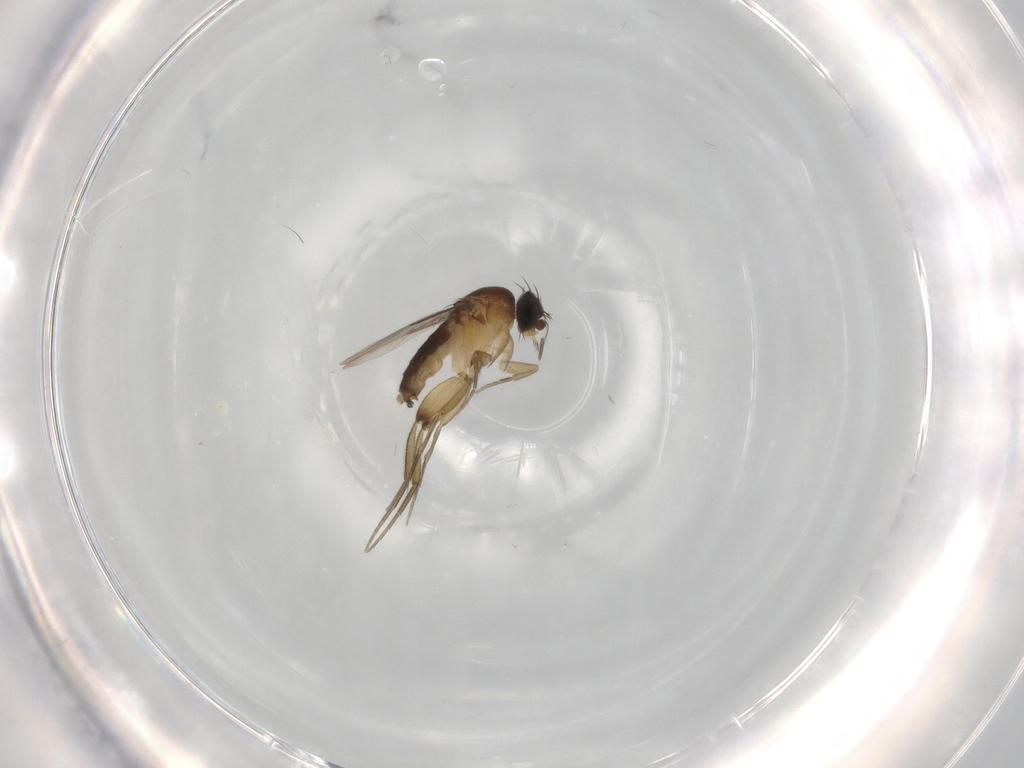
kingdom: Animalia
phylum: Arthropoda
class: Insecta
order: Diptera
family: Phoridae
